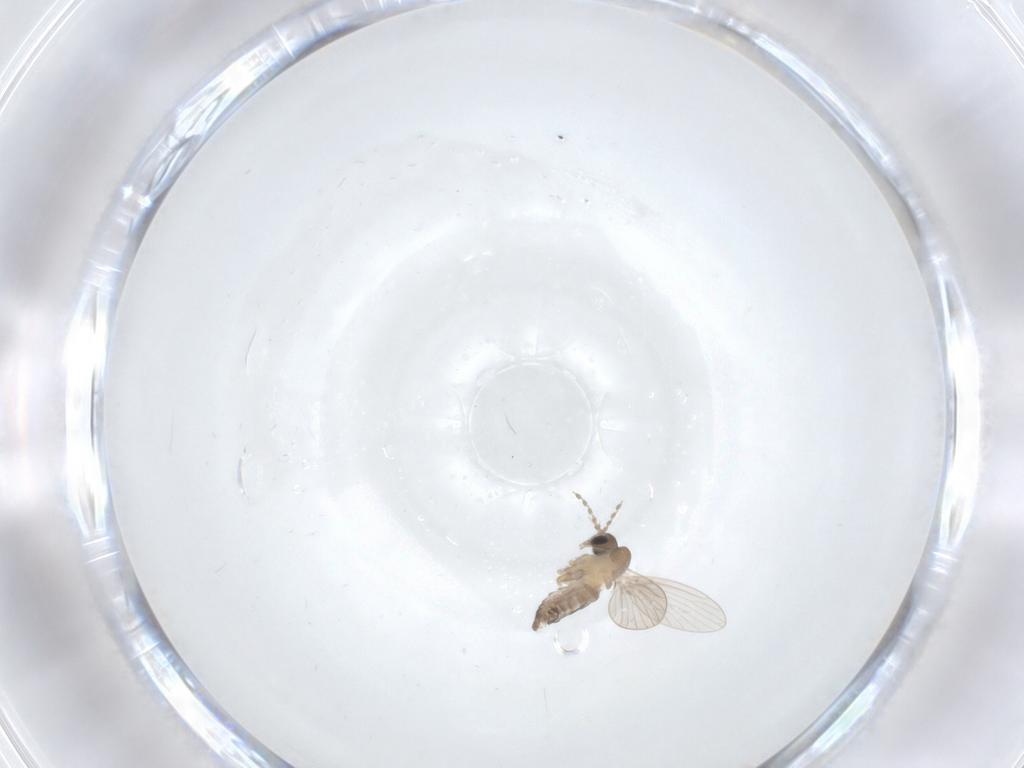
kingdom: Animalia
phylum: Arthropoda
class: Insecta
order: Diptera
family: Psychodidae
